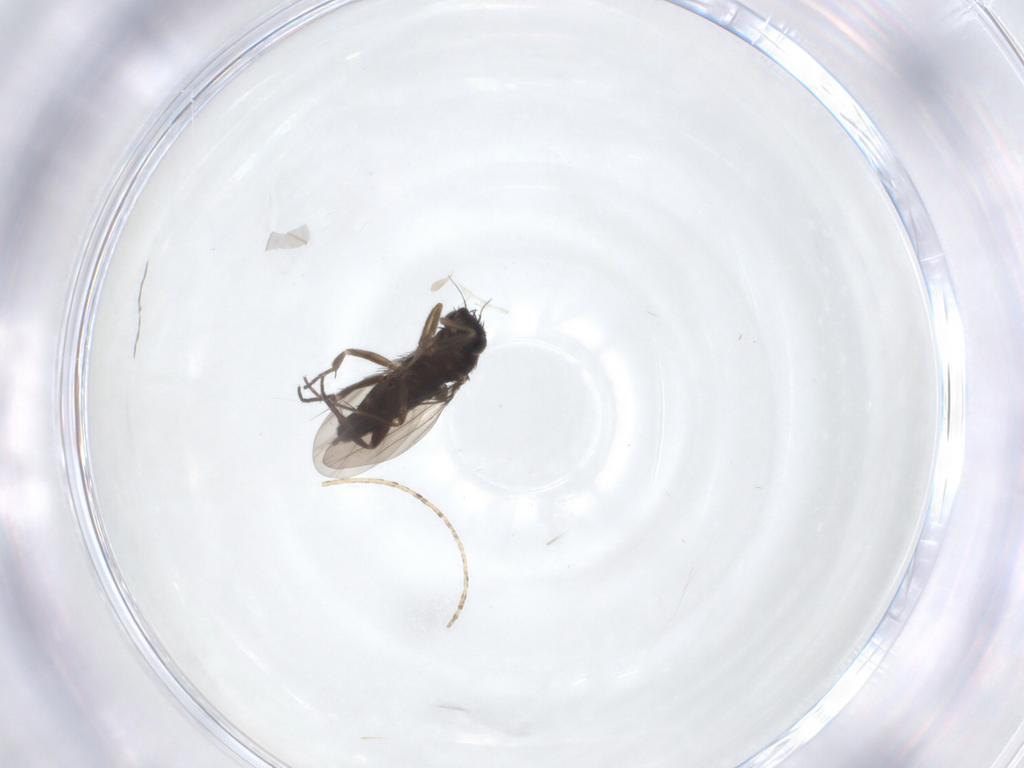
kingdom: Animalia
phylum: Arthropoda
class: Insecta
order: Diptera
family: Phoridae
